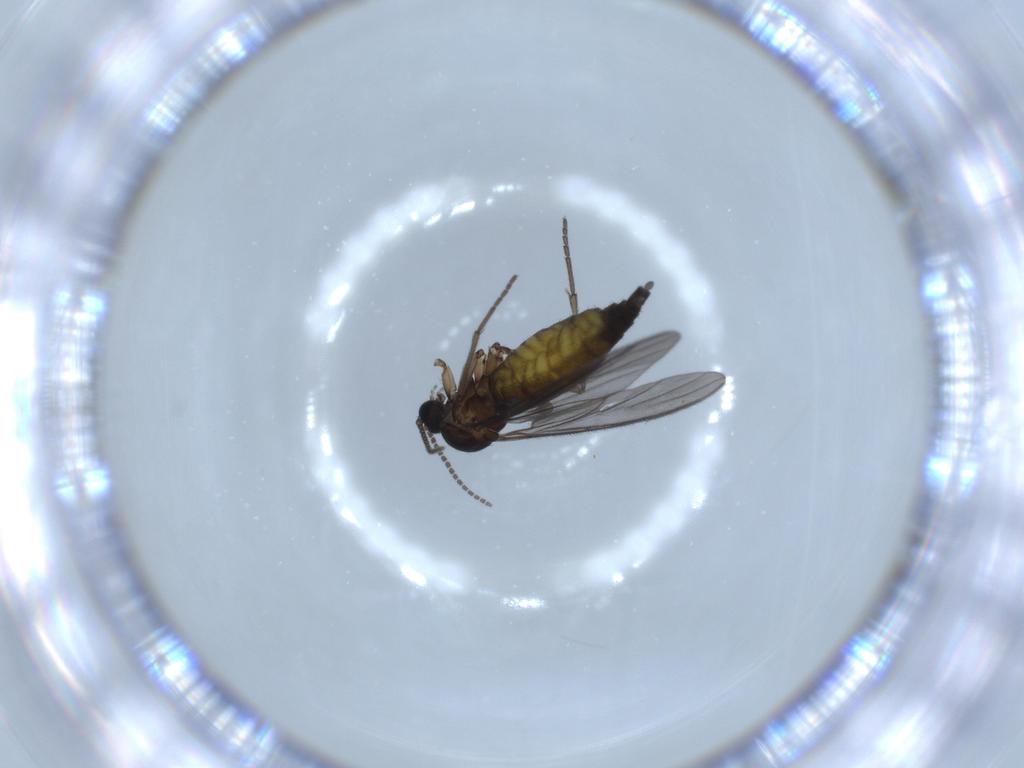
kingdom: Animalia
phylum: Arthropoda
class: Insecta
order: Diptera
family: Sciaridae
